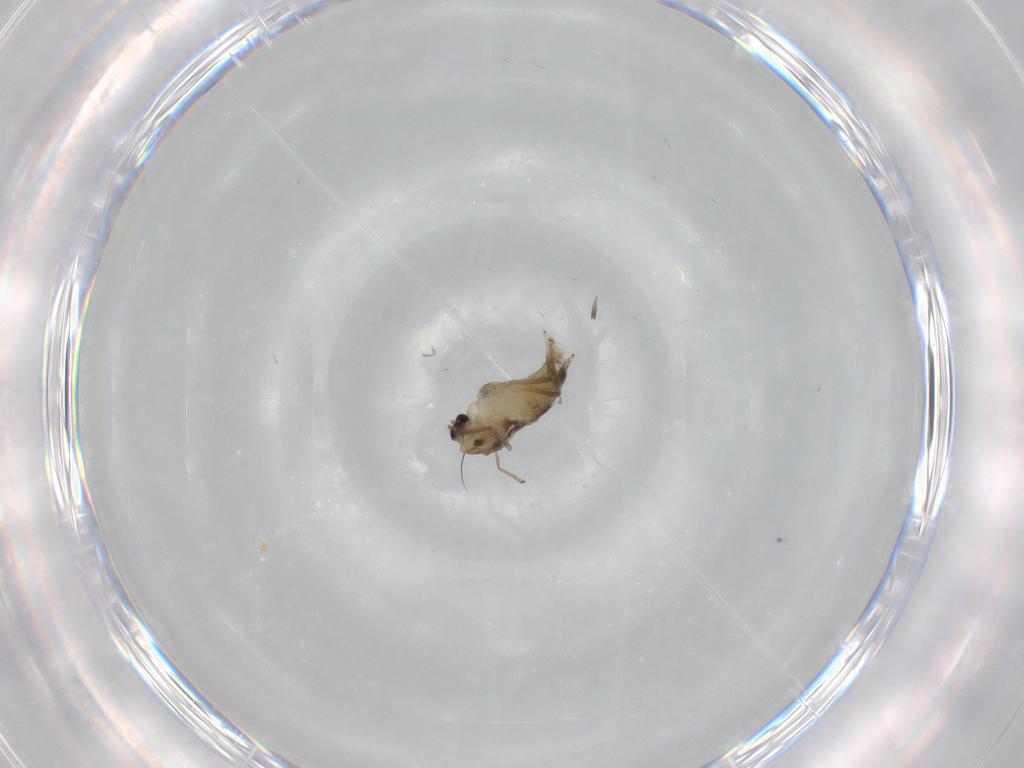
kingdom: Animalia
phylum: Arthropoda
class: Insecta
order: Diptera
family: Chironomidae
